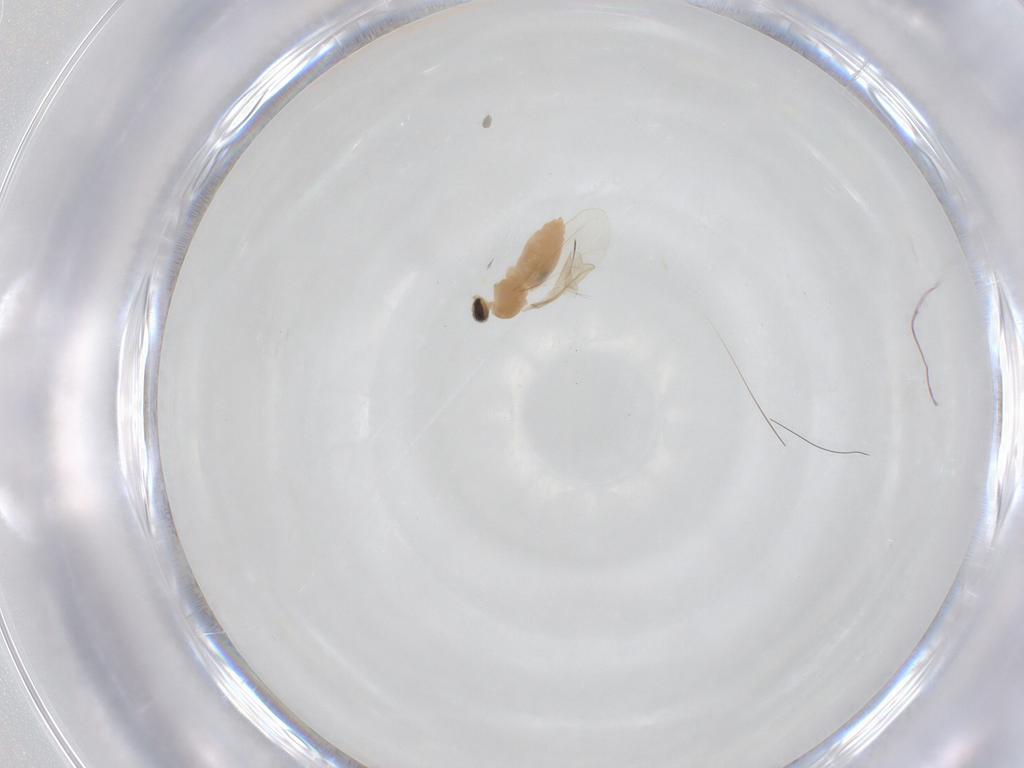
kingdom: Animalia
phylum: Arthropoda
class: Insecta
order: Diptera
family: Cecidomyiidae
